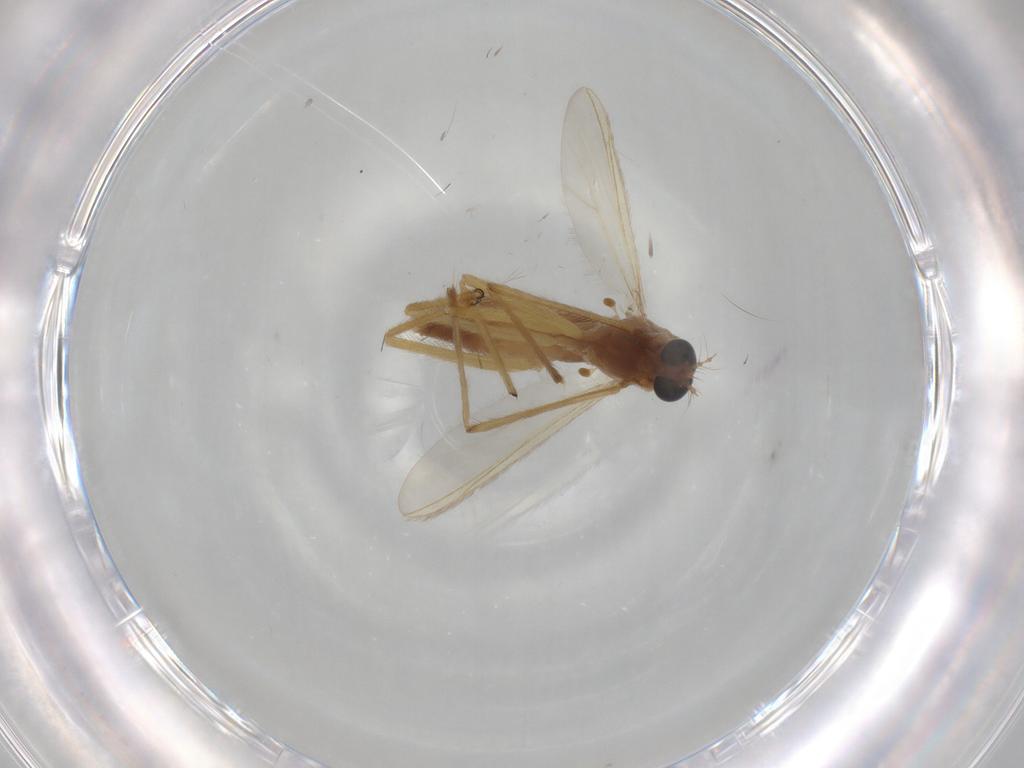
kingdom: Animalia
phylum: Arthropoda
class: Insecta
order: Diptera
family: Chironomidae
